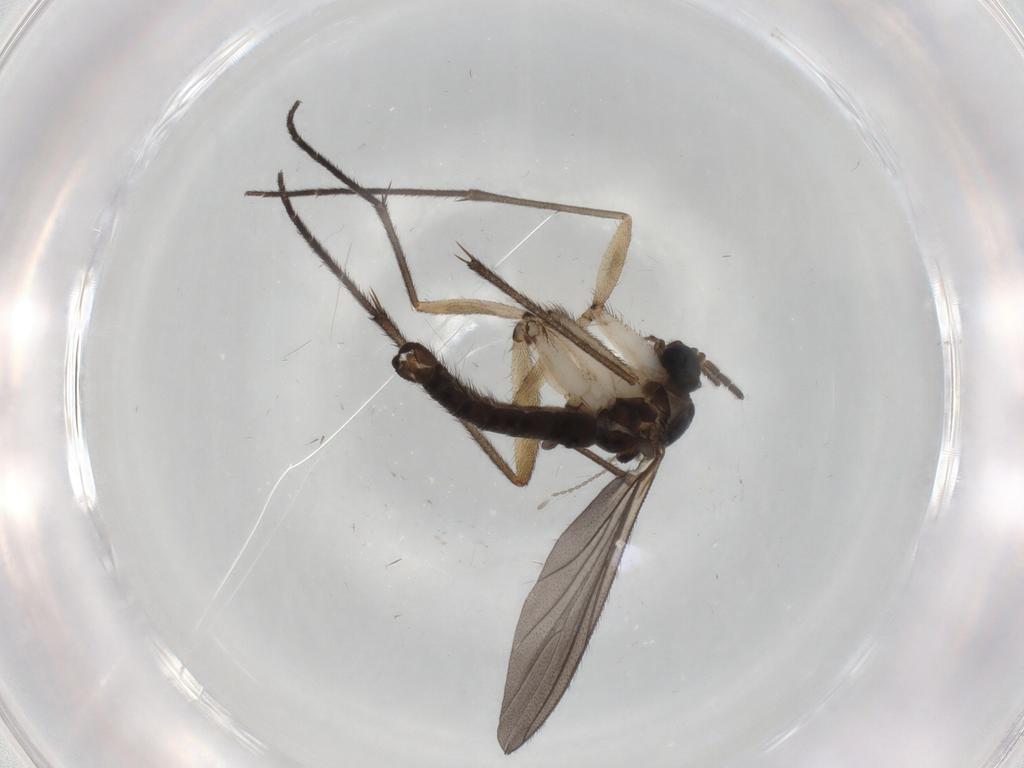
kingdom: Animalia
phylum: Arthropoda
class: Insecta
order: Diptera
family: Sciaridae
